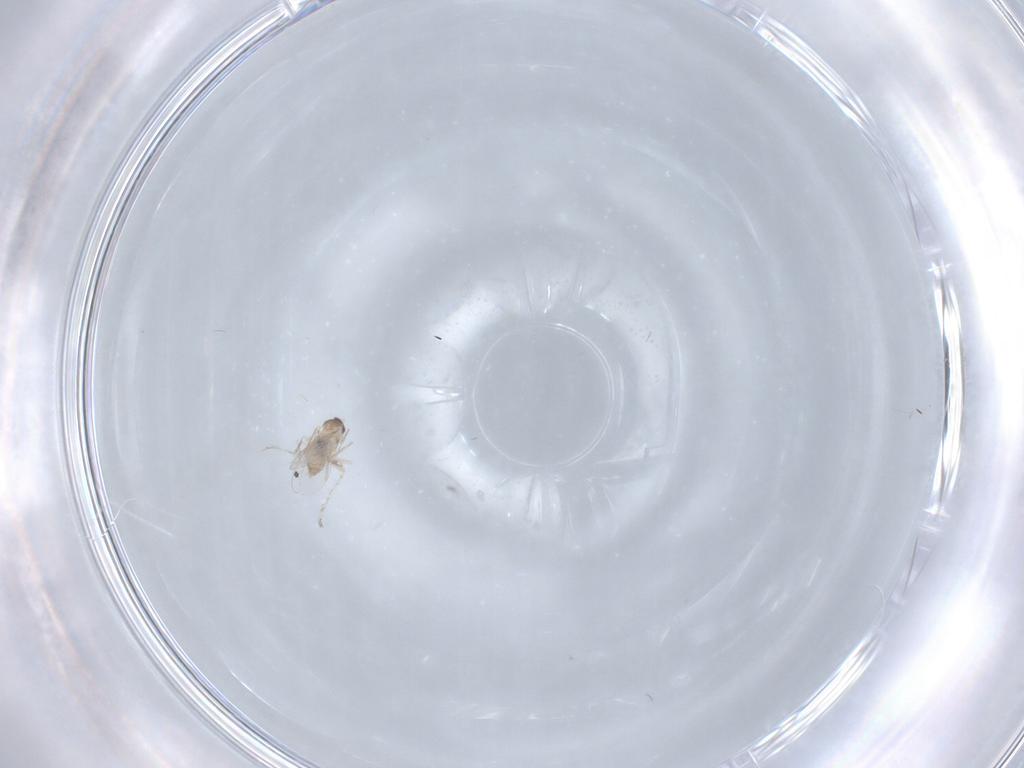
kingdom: Animalia
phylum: Arthropoda
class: Insecta
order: Diptera
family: Cecidomyiidae
